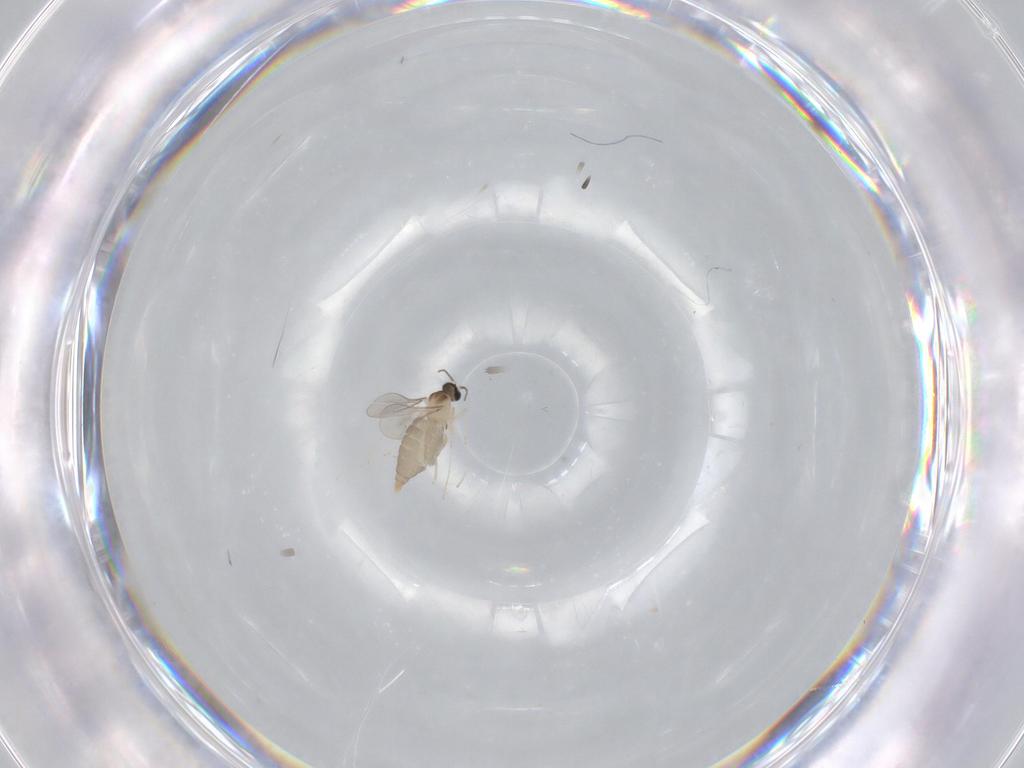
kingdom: Animalia
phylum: Arthropoda
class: Insecta
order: Diptera
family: Cecidomyiidae
